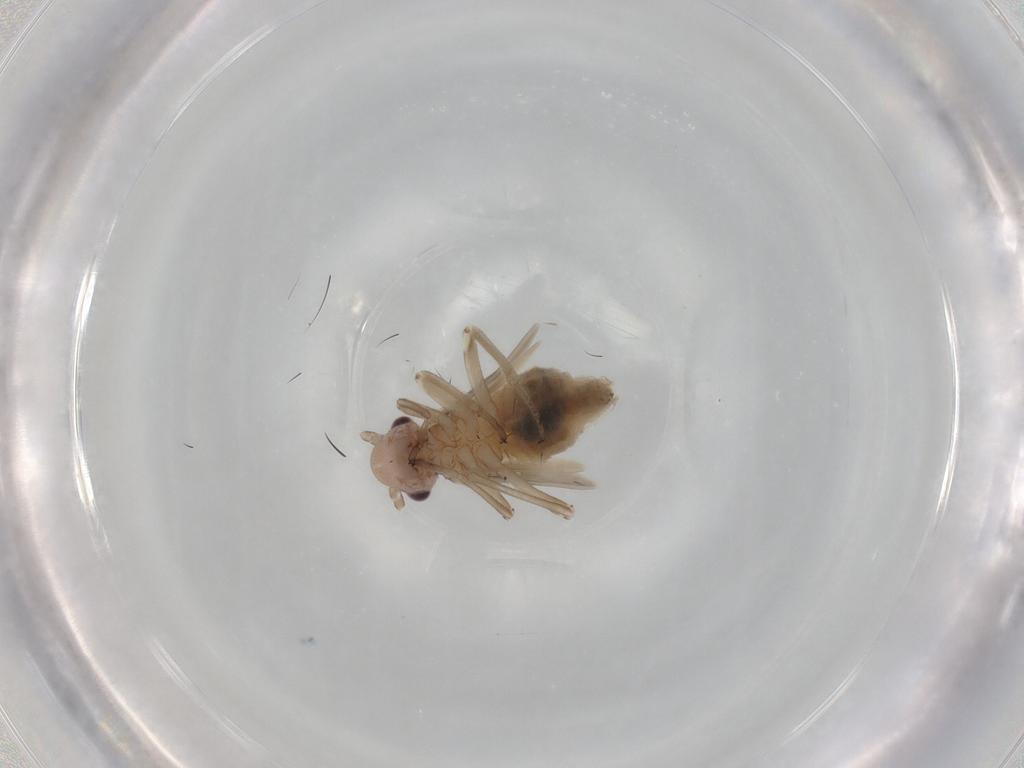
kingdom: Animalia
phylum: Arthropoda
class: Insecta
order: Psocodea
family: Stenopsocidae
